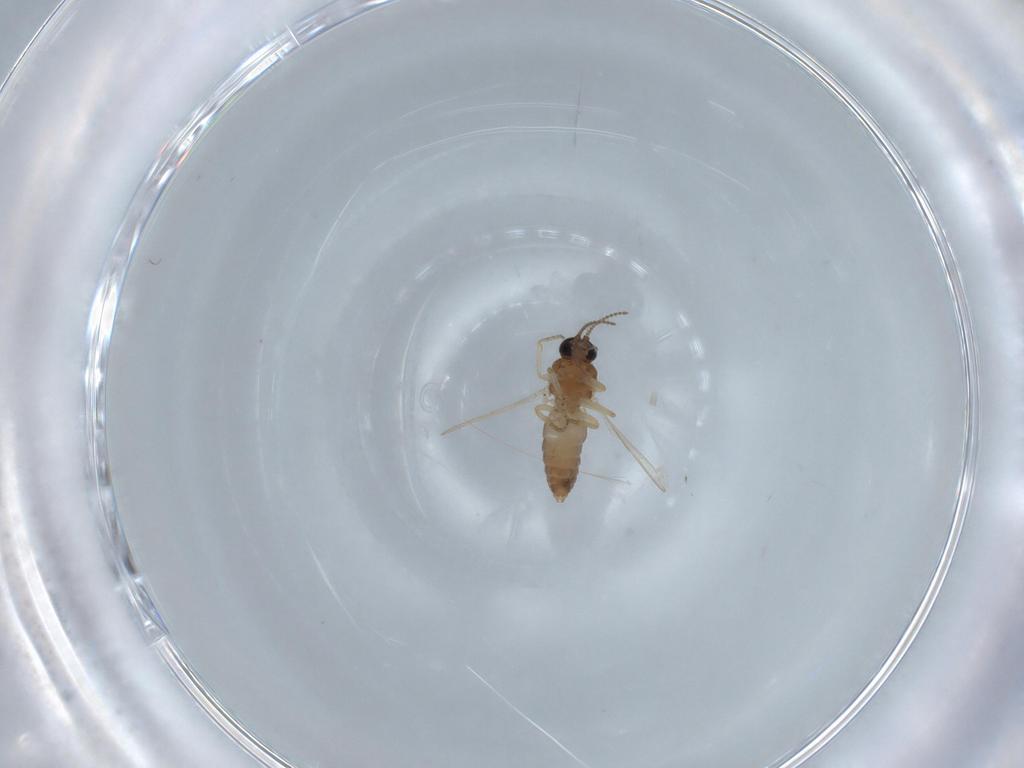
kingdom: Animalia
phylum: Arthropoda
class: Insecta
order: Diptera
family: Ceratopogonidae
